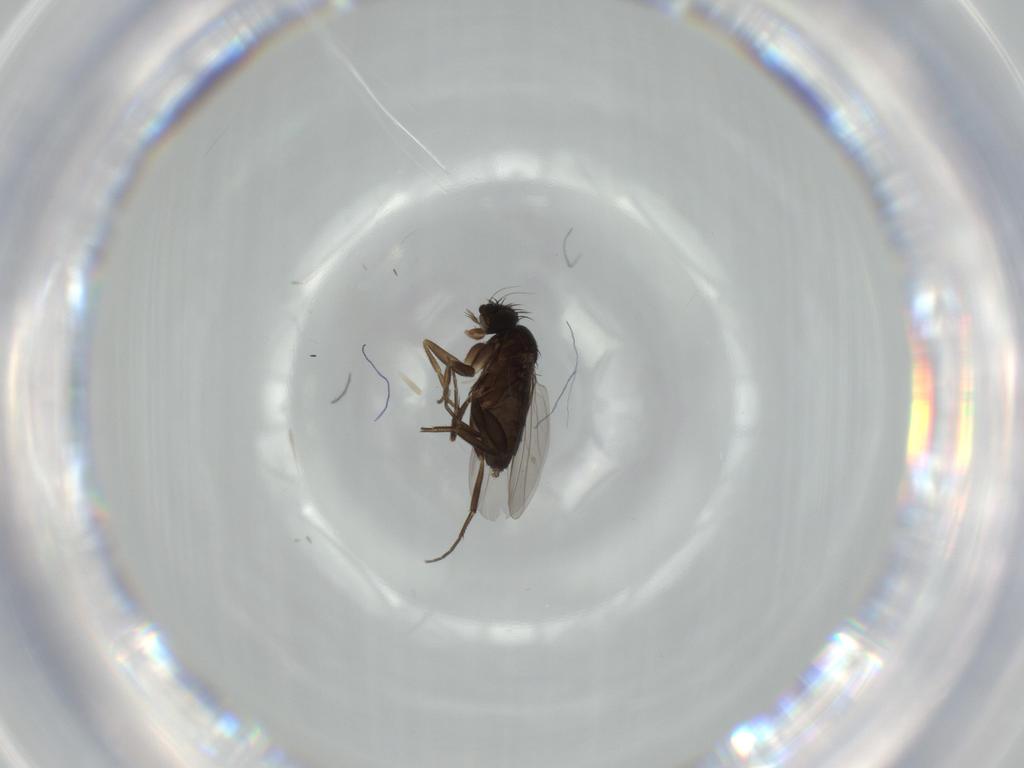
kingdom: Animalia
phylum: Arthropoda
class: Insecta
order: Diptera
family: Phoridae
